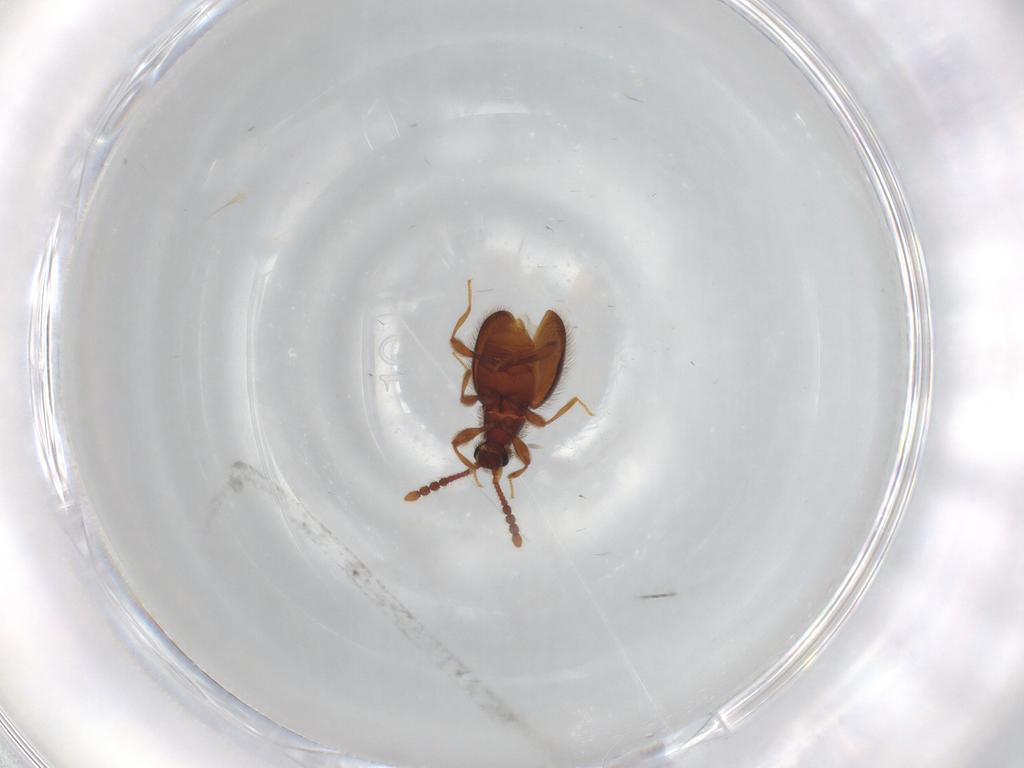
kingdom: Animalia
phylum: Arthropoda
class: Insecta
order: Coleoptera
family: Staphylinidae
